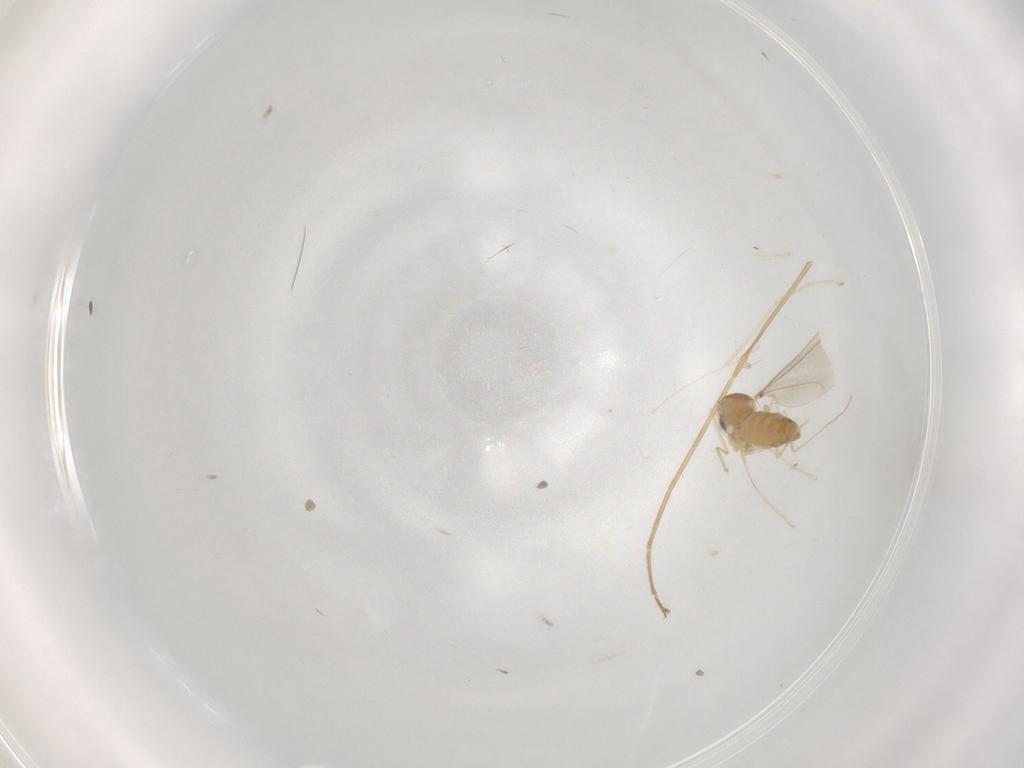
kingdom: Animalia
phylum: Arthropoda
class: Insecta
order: Diptera
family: Cecidomyiidae
